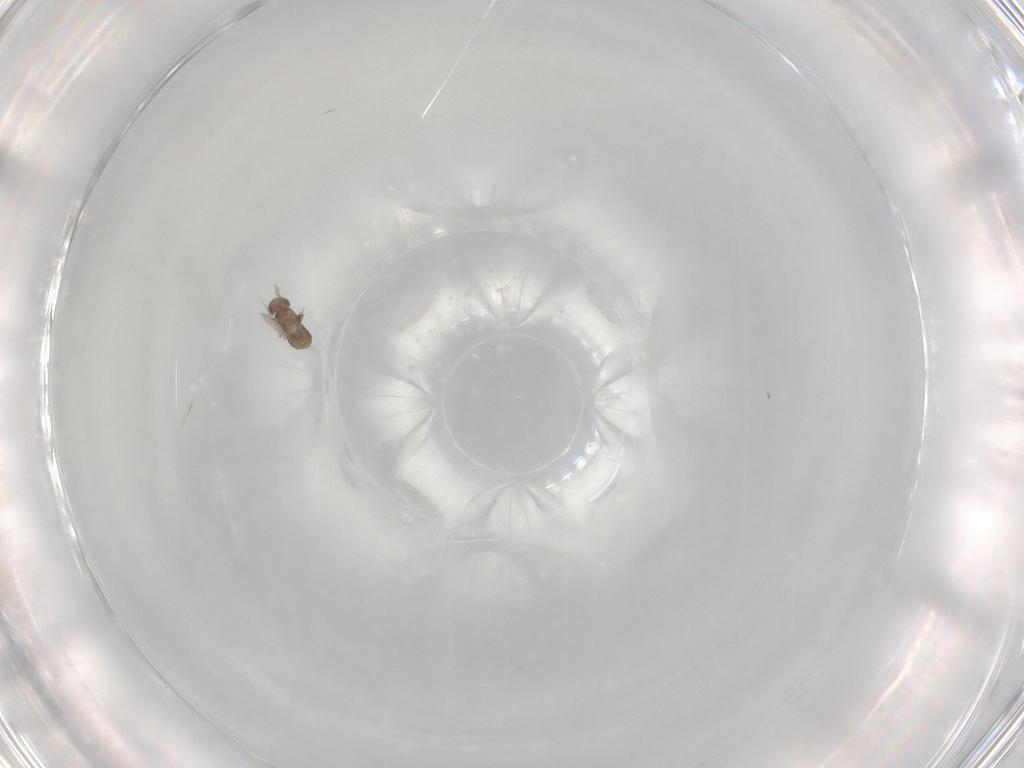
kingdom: Animalia
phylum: Arthropoda
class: Insecta
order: Hymenoptera
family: Trichogrammatidae
